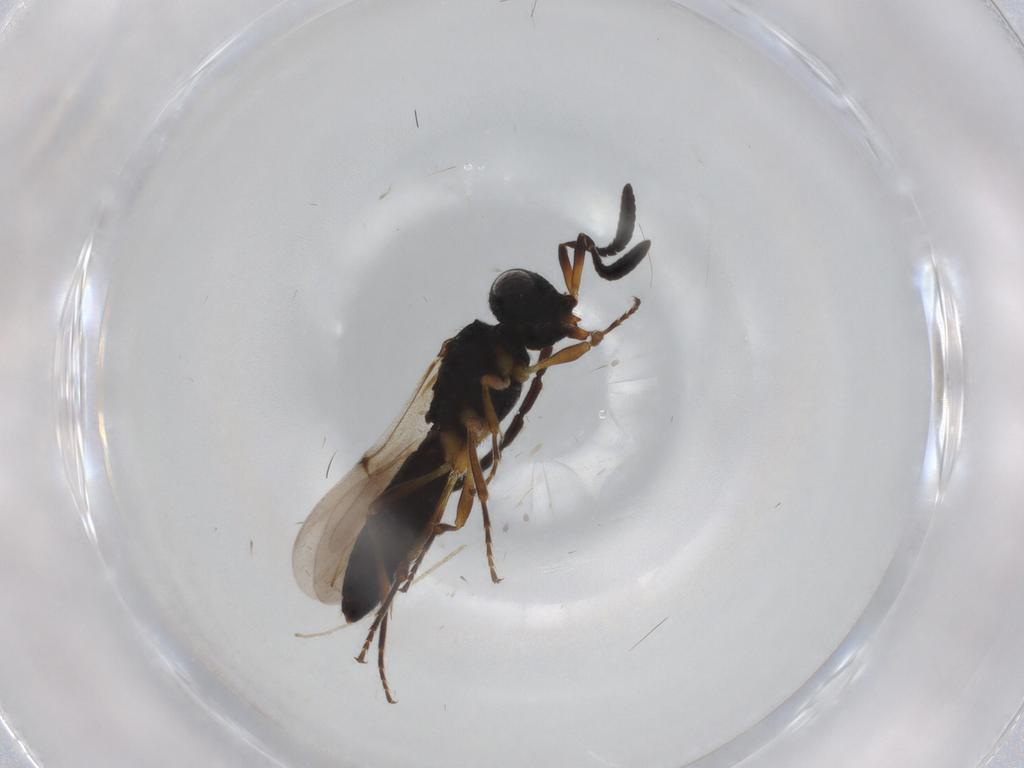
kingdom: Animalia
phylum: Arthropoda
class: Insecta
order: Hymenoptera
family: Scelionidae
